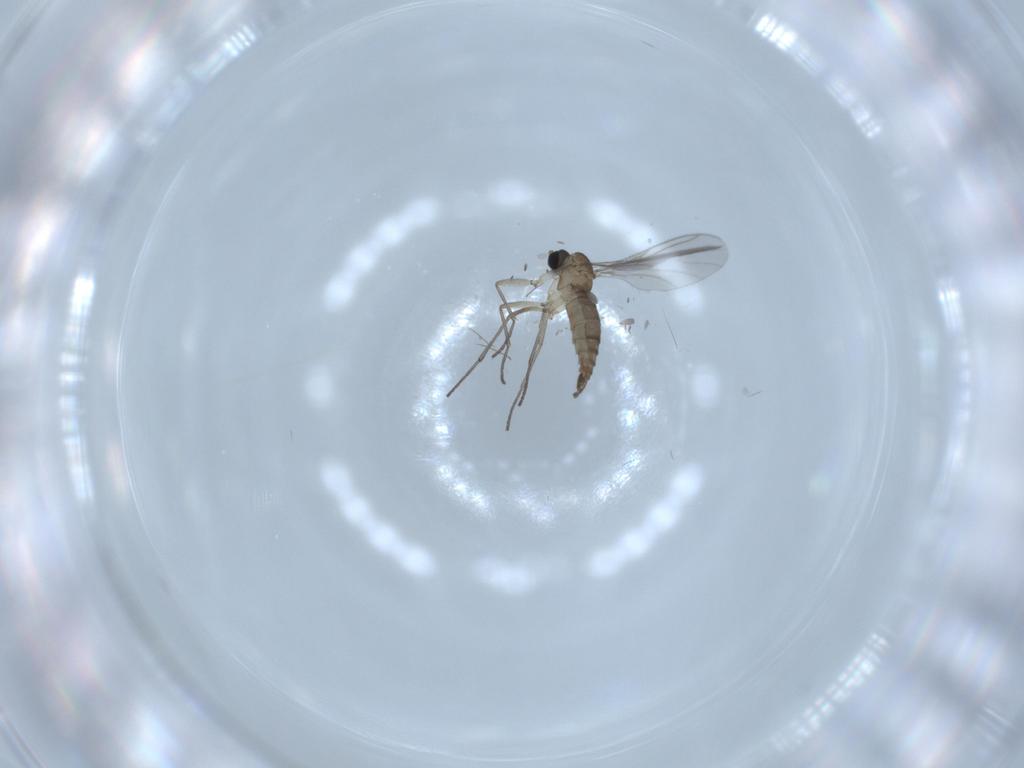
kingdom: Animalia
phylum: Arthropoda
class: Insecta
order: Diptera
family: Sciaridae
